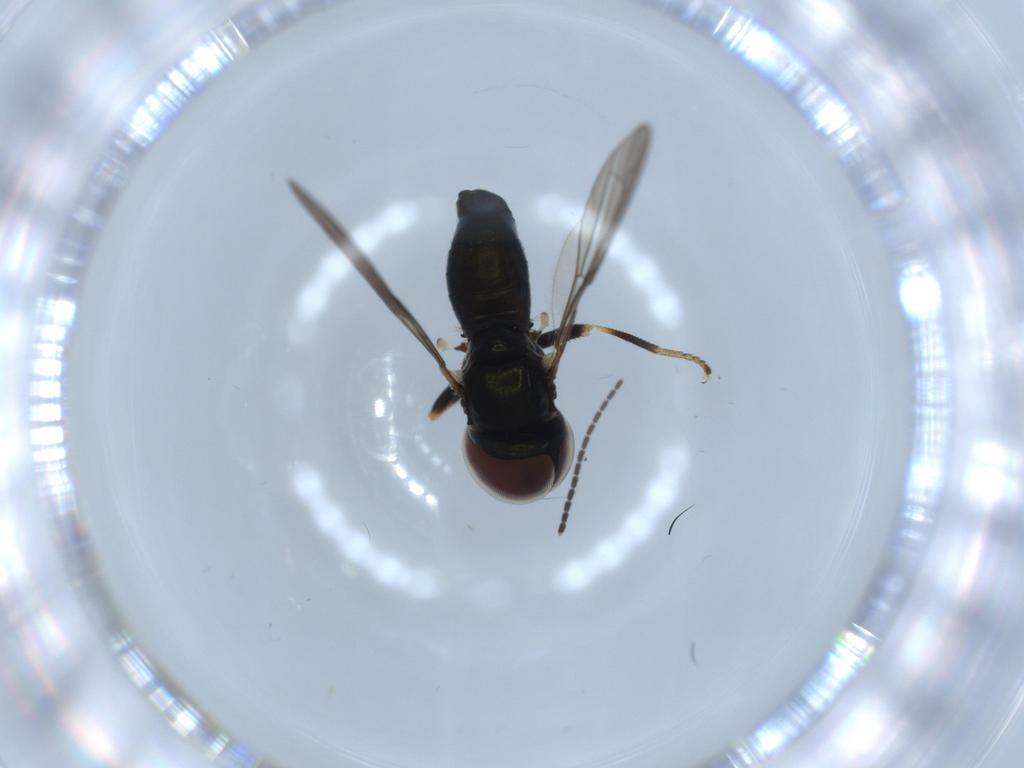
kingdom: Animalia
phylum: Arthropoda
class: Insecta
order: Diptera
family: Pipunculidae
